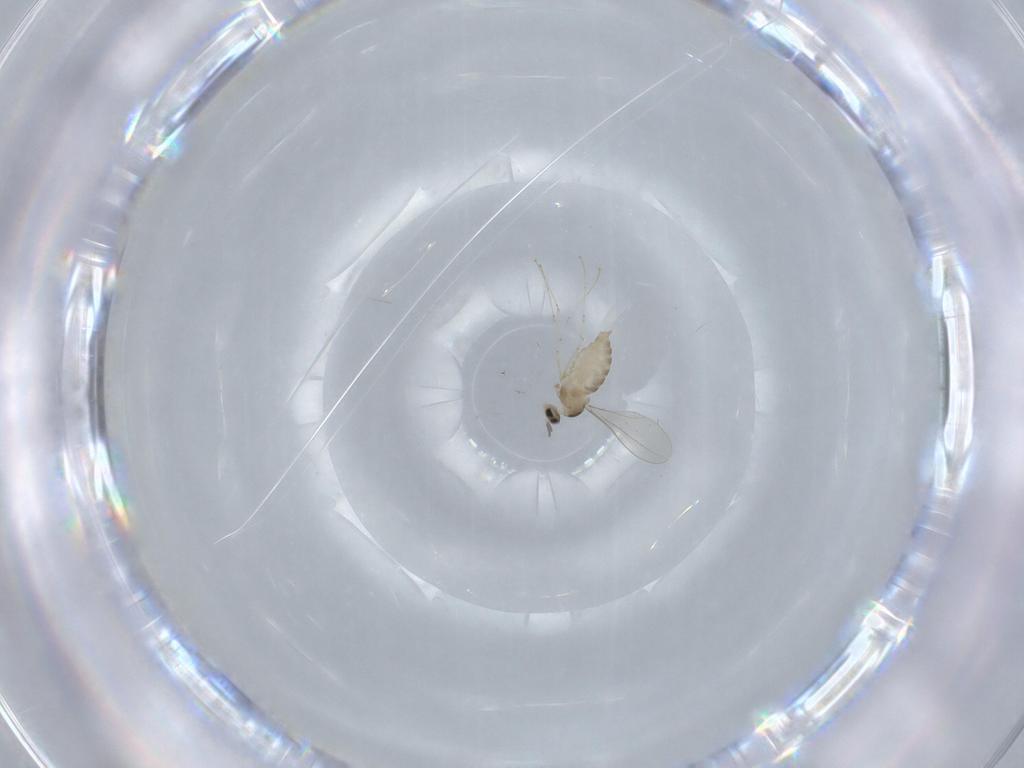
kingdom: Animalia
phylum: Arthropoda
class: Insecta
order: Diptera
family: Cecidomyiidae
